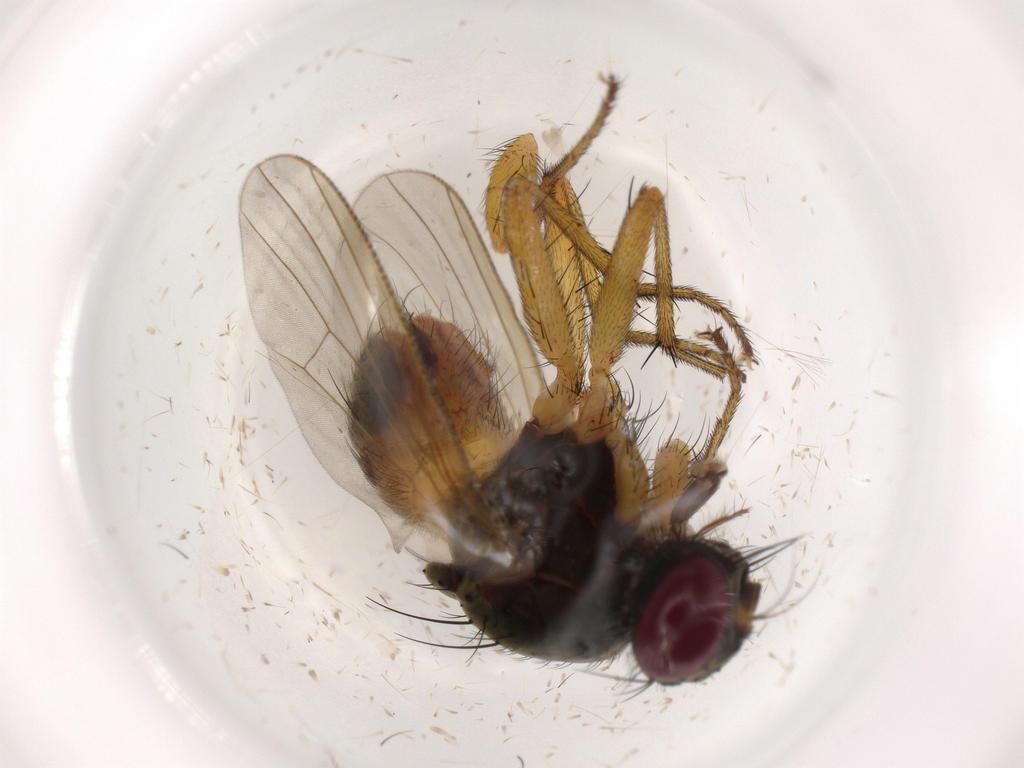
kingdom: Animalia
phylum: Arthropoda
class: Insecta
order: Diptera
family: Muscidae
